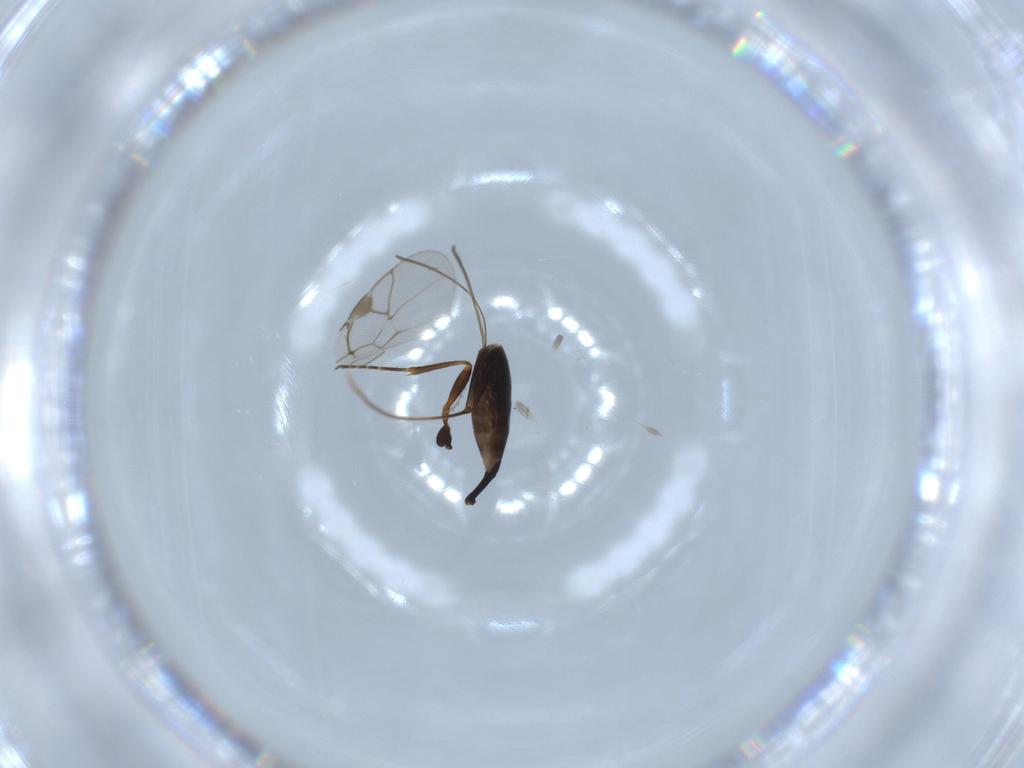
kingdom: Animalia
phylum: Arthropoda
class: Insecta
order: Hymenoptera
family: Ichneumonidae
